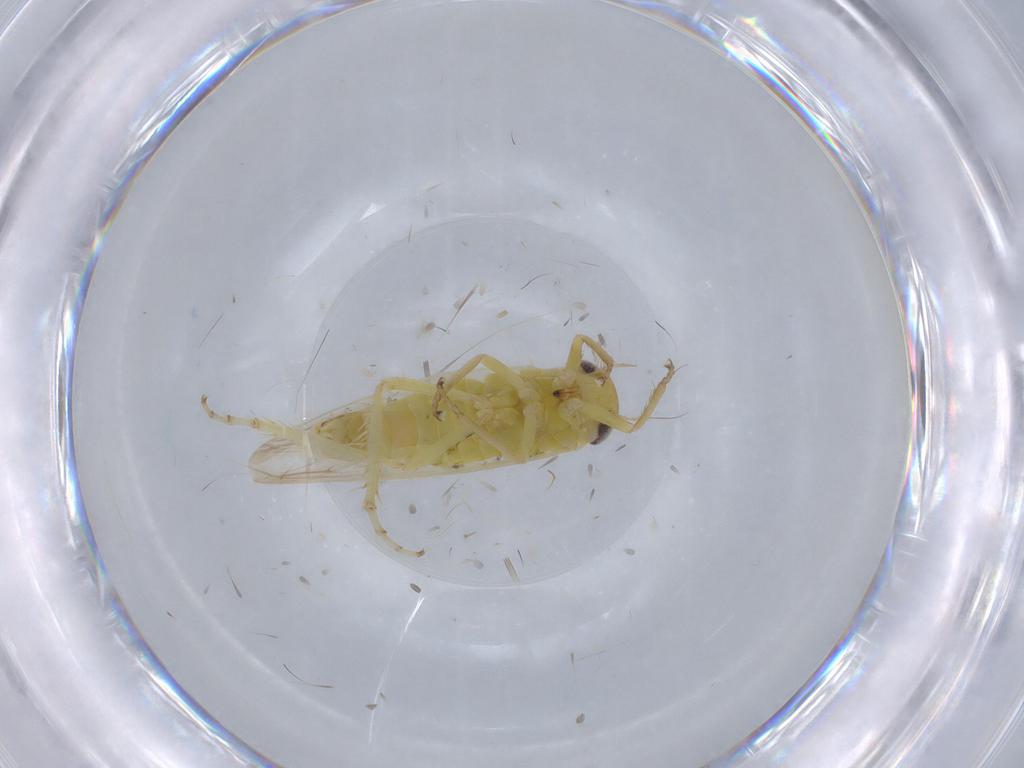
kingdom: Animalia
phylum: Arthropoda
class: Insecta
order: Hemiptera
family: Cicadellidae
